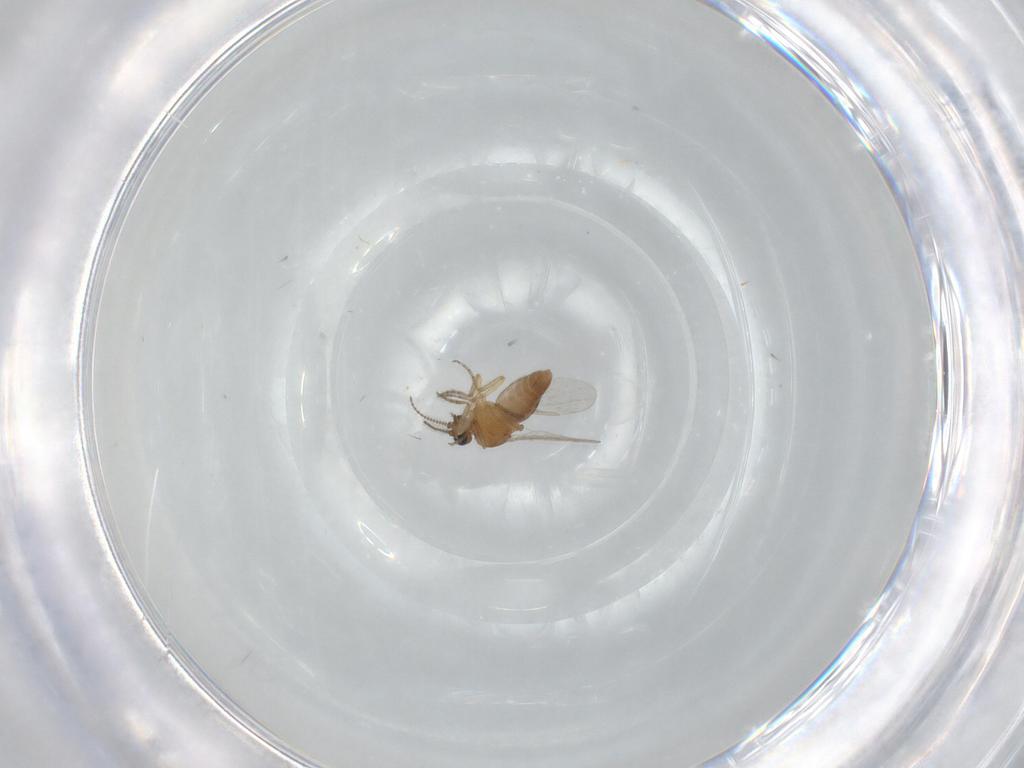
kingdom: Animalia
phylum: Arthropoda
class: Insecta
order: Diptera
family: Ceratopogonidae
